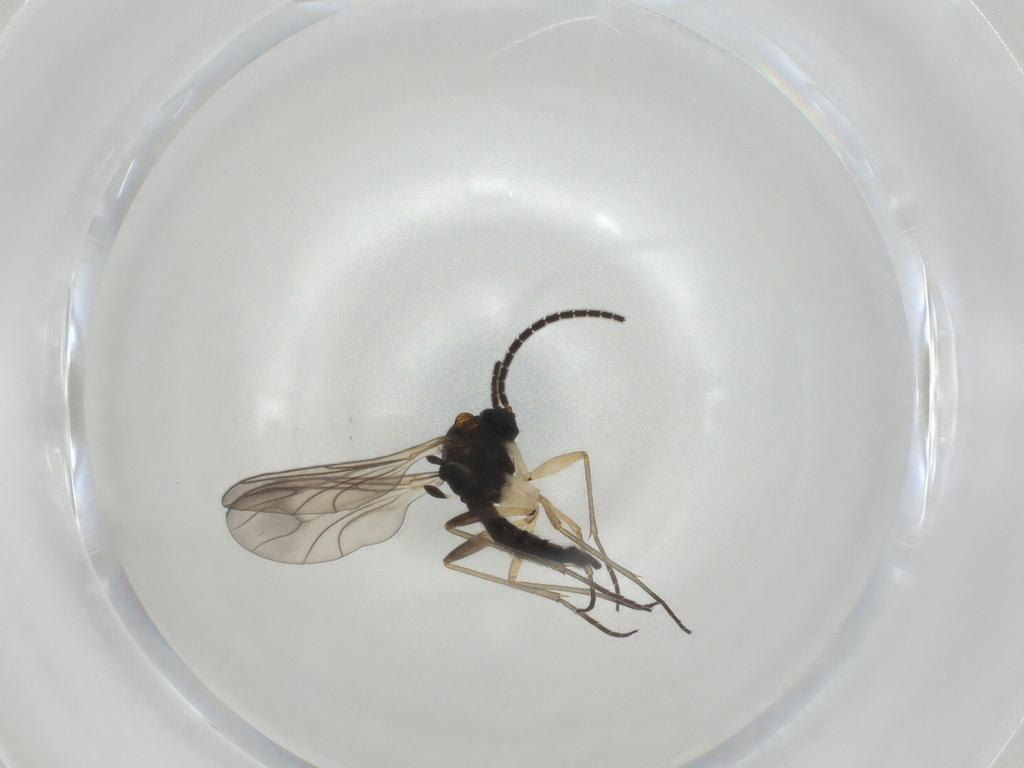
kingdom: Animalia
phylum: Arthropoda
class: Insecta
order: Diptera
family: Sciaridae
